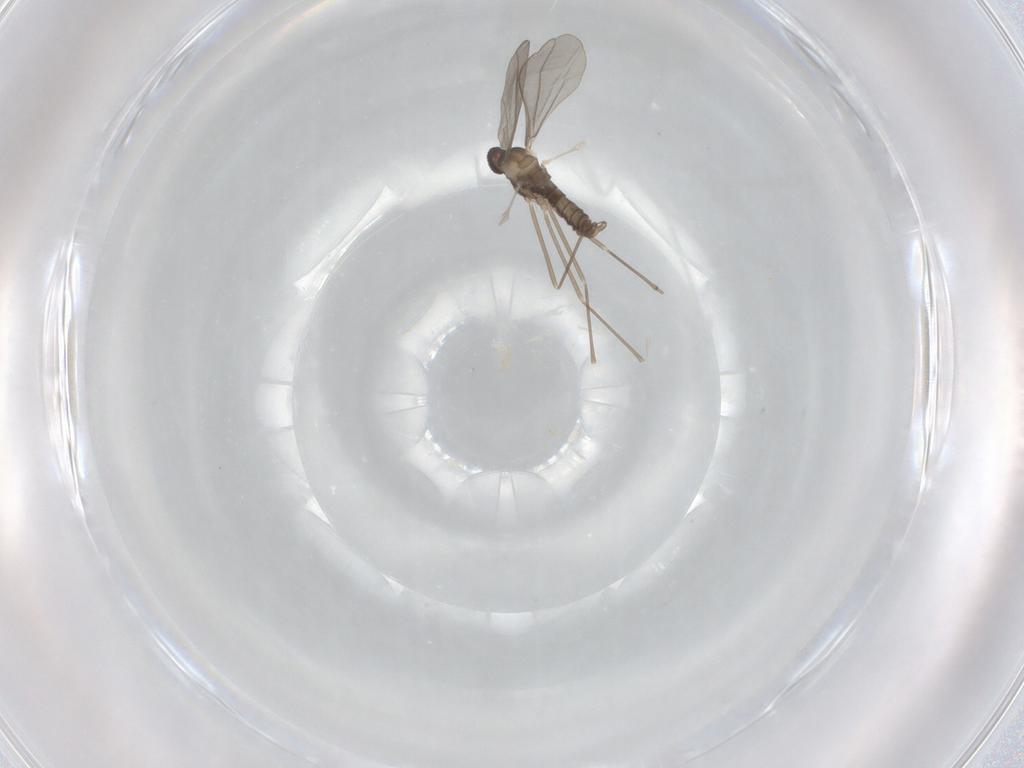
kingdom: Animalia
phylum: Arthropoda
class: Insecta
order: Diptera
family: Cecidomyiidae
